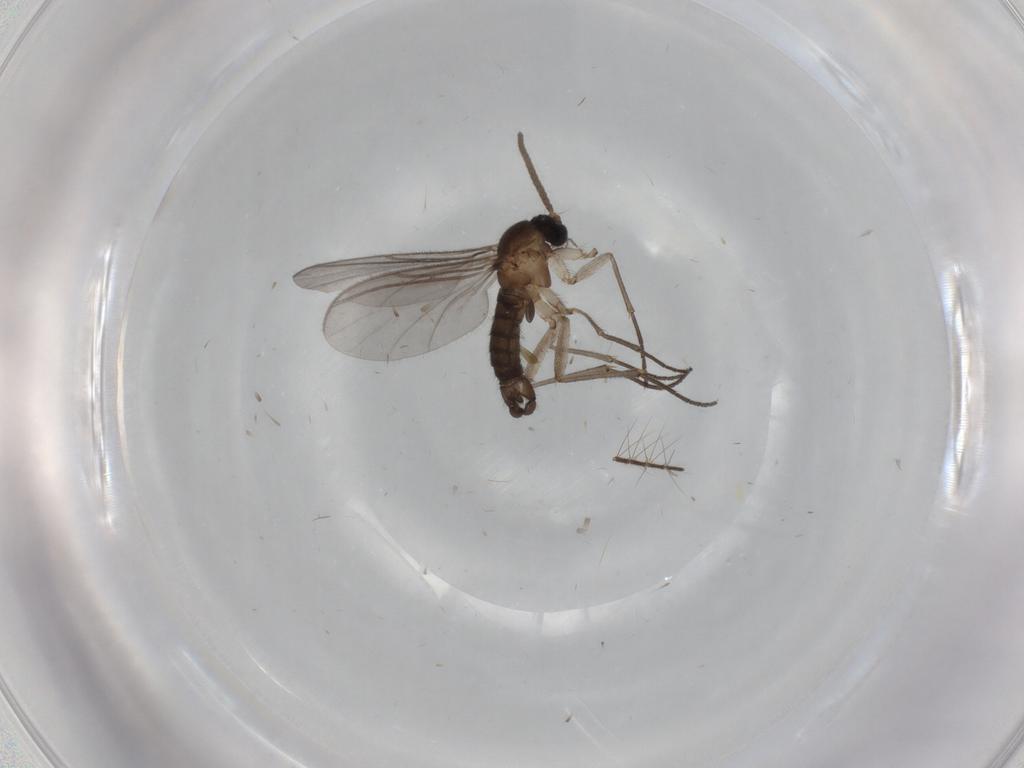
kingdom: Animalia
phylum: Arthropoda
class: Insecta
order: Diptera
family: Culicidae
